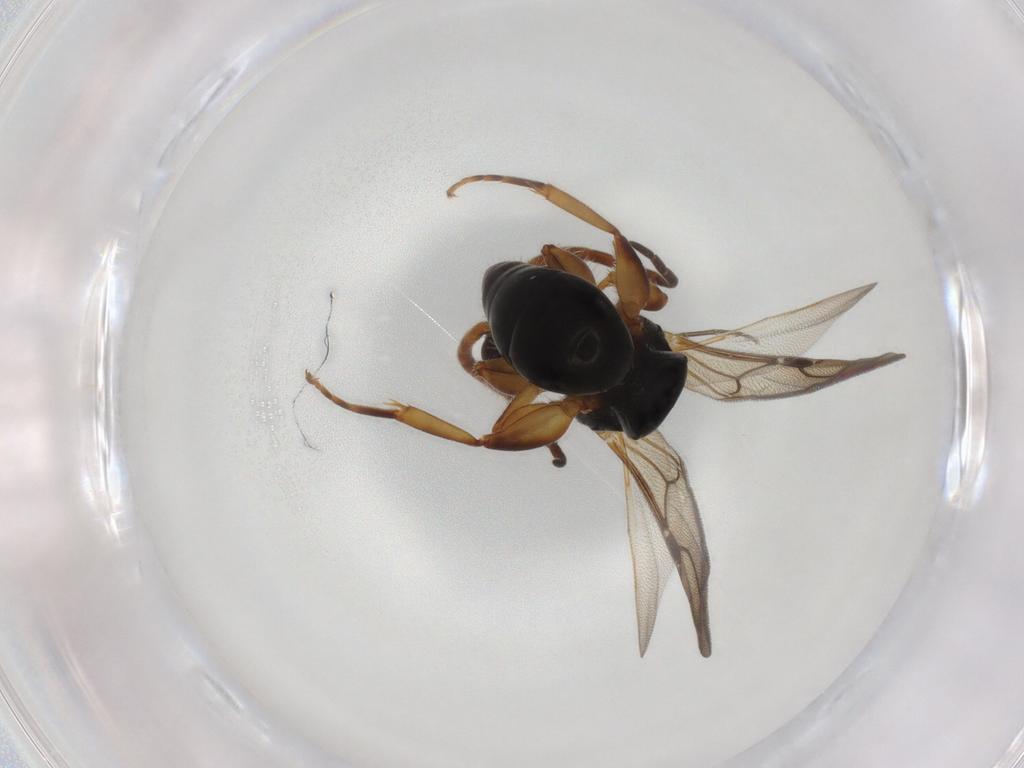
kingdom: Animalia
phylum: Arthropoda
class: Insecta
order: Hymenoptera
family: Bethylidae
